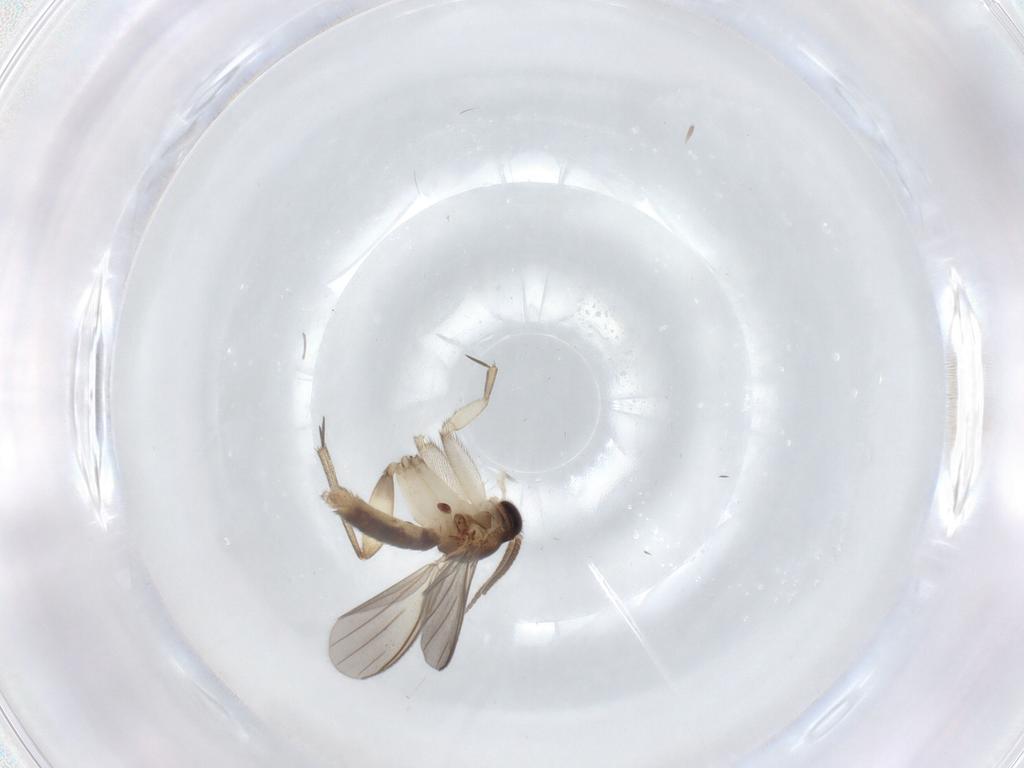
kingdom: Animalia
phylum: Arthropoda
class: Insecta
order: Diptera
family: Mycetophilidae
